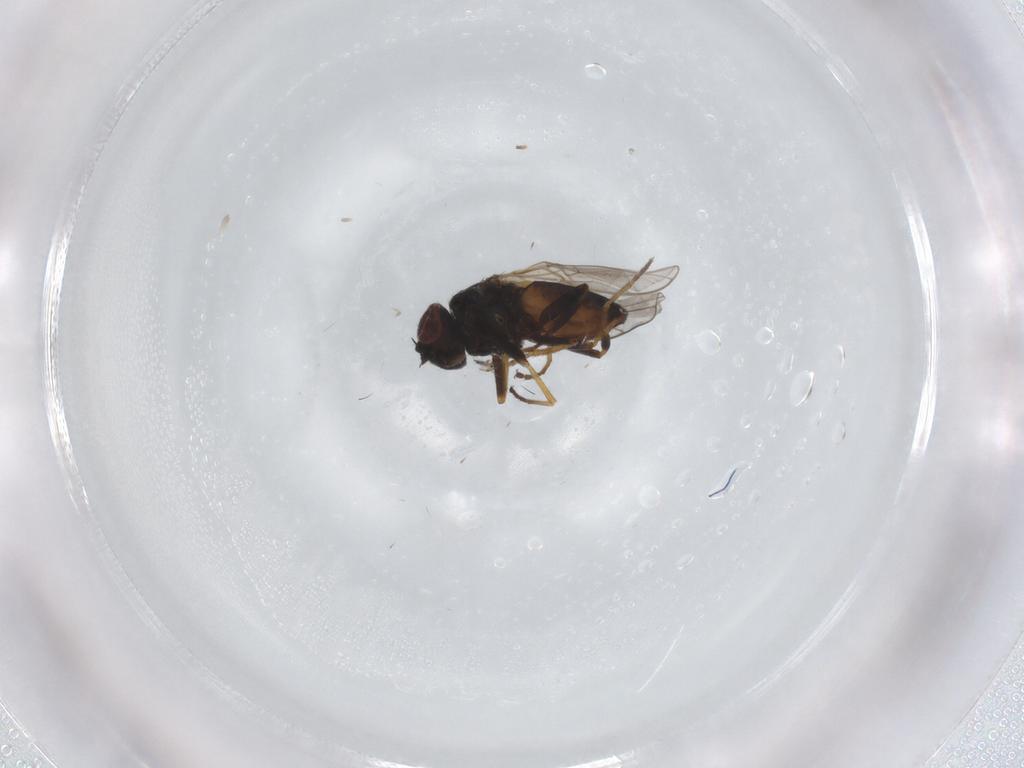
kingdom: Animalia
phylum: Arthropoda
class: Insecta
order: Diptera
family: Chloropidae
